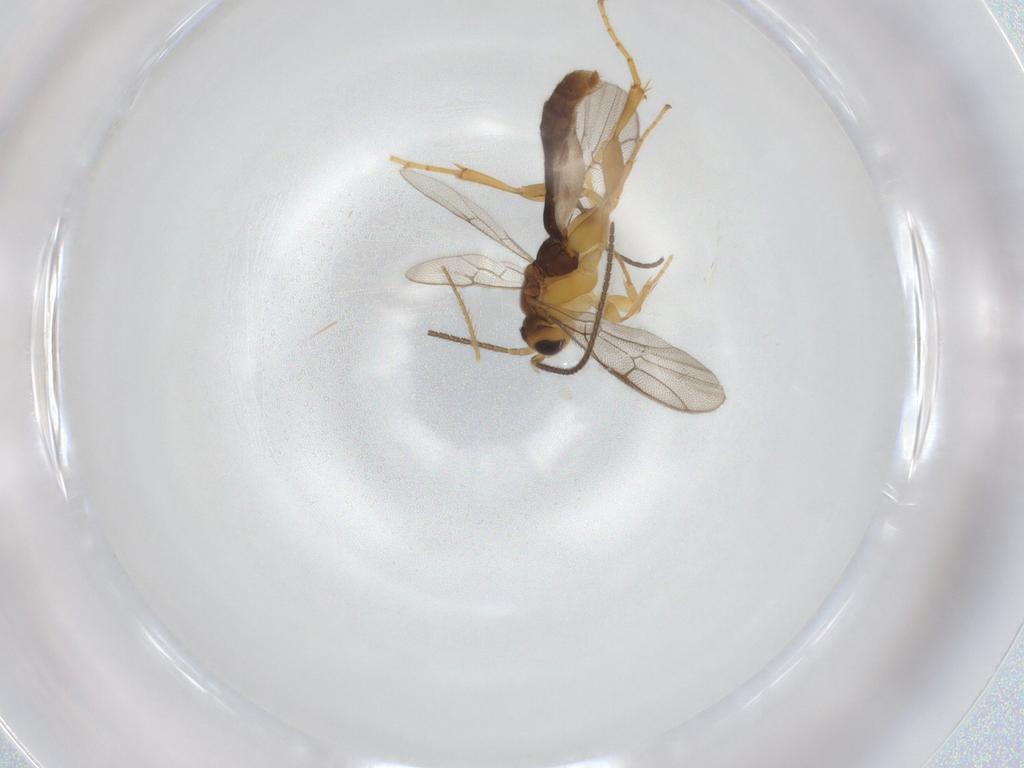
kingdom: Animalia
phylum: Arthropoda
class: Insecta
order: Hymenoptera
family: Ichneumonidae
